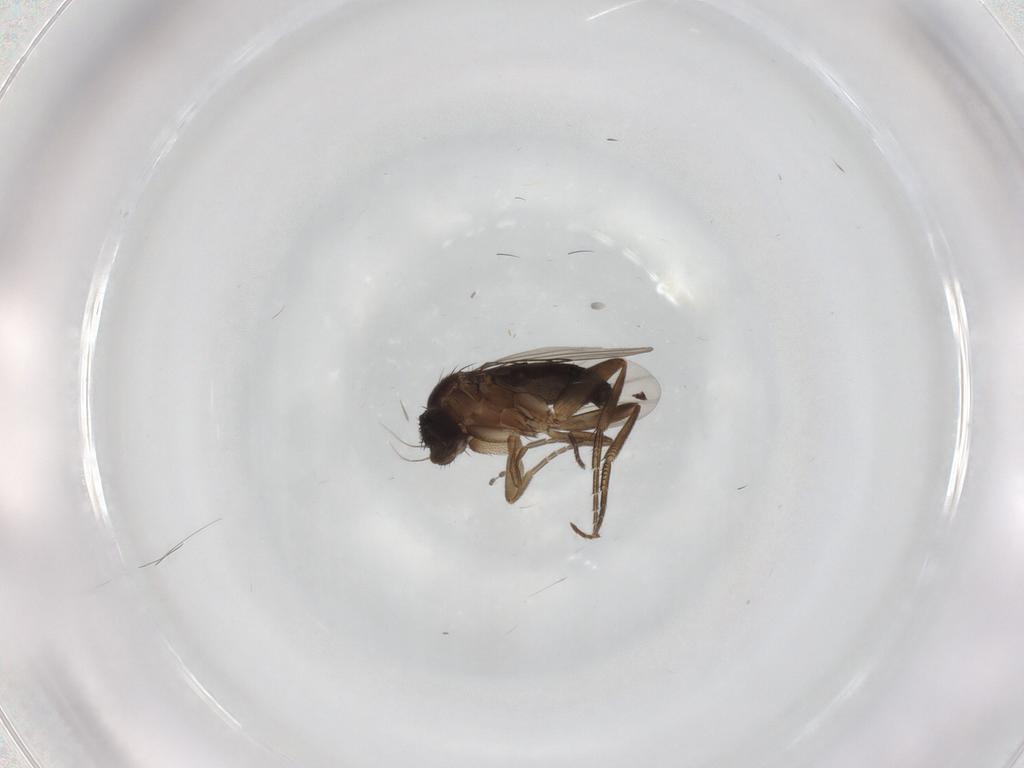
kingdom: Animalia
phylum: Arthropoda
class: Insecta
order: Diptera
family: Phoridae
